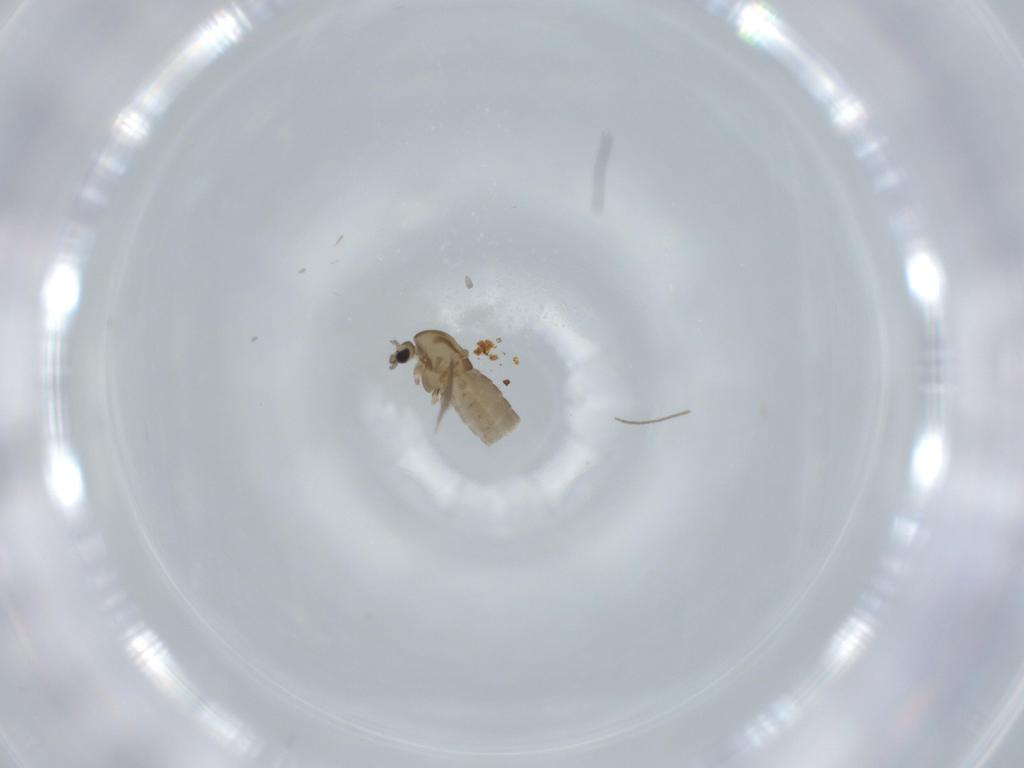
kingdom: Animalia
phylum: Arthropoda
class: Insecta
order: Diptera
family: Chironomidae
